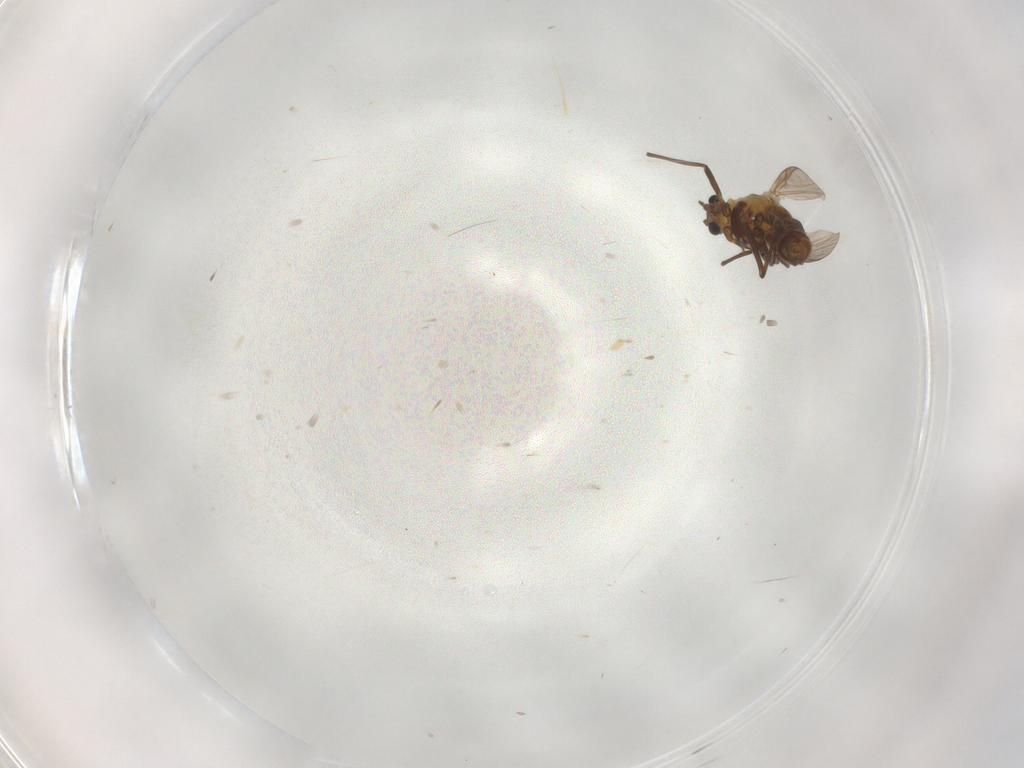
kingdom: Animalia
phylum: Arthropoda
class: Insecta
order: Diptera
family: Chironomidae
